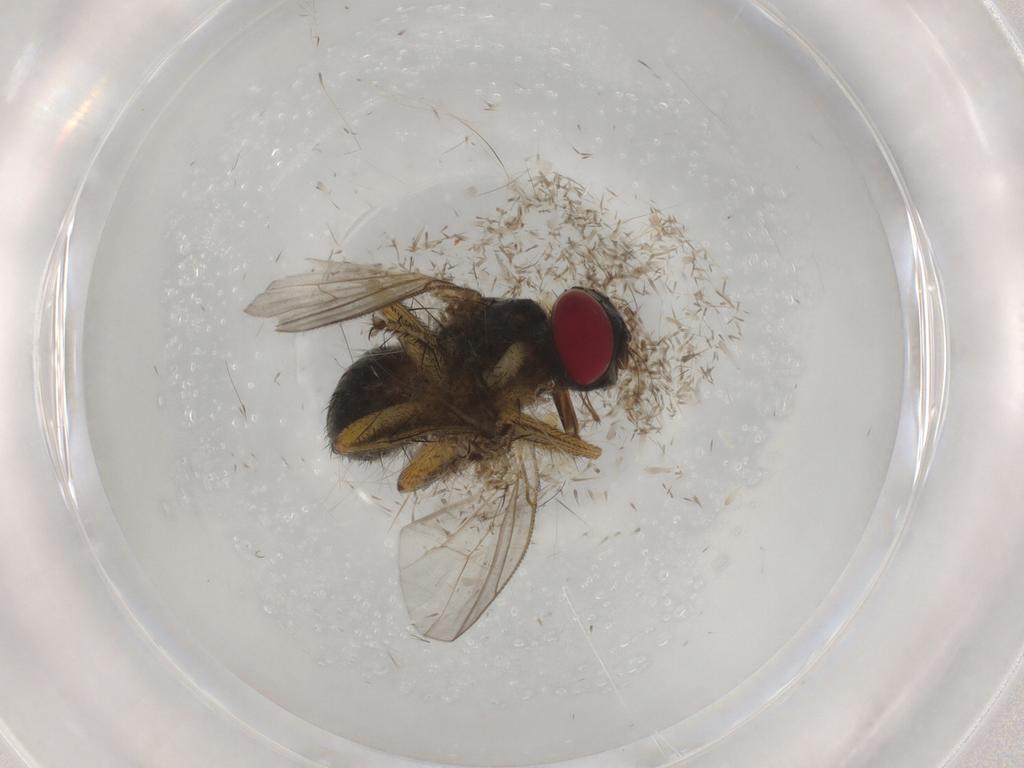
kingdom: Animalia
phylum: Arthropoda
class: Insecta
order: Diptera
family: Muscidae
